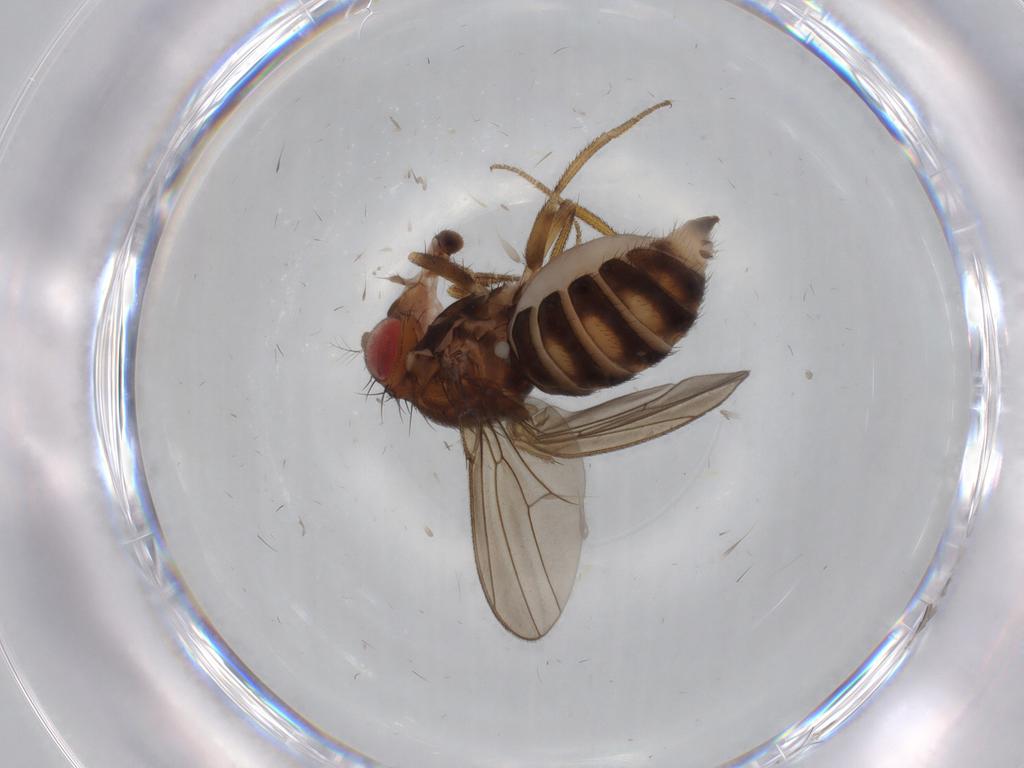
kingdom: Animalia
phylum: Arthropoda
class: Insecta
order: Diptera
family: Drosophilidae
